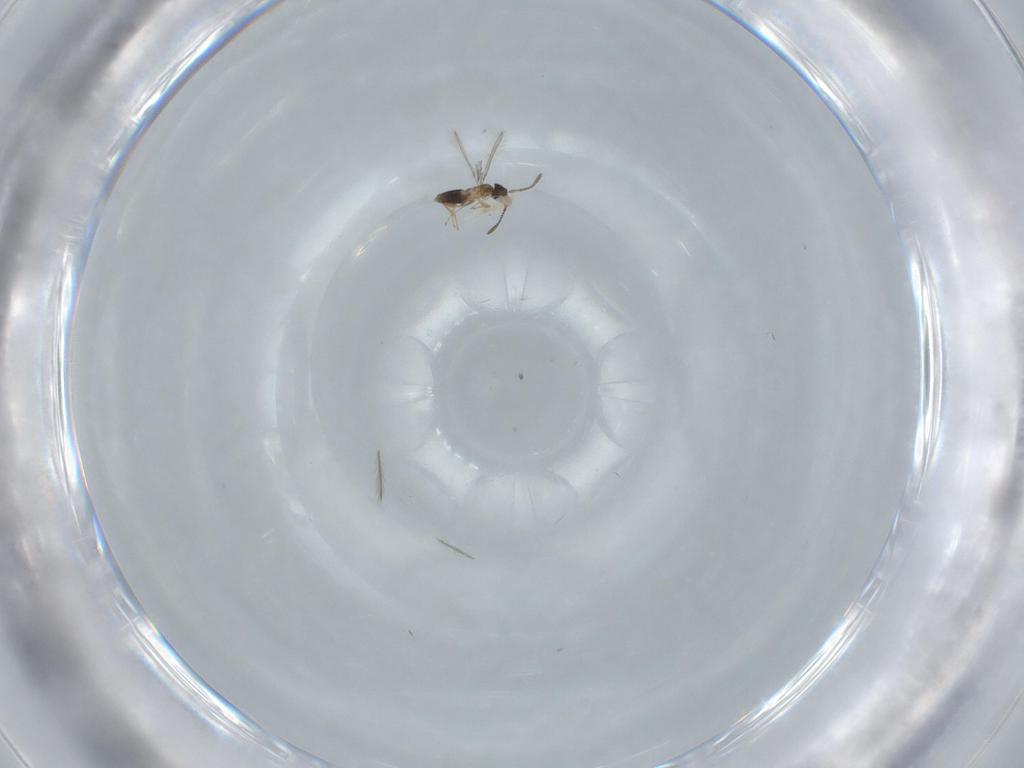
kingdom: Animalia
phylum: Arthropoda
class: Insecta
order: Hymenoptera
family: Mymaridae
